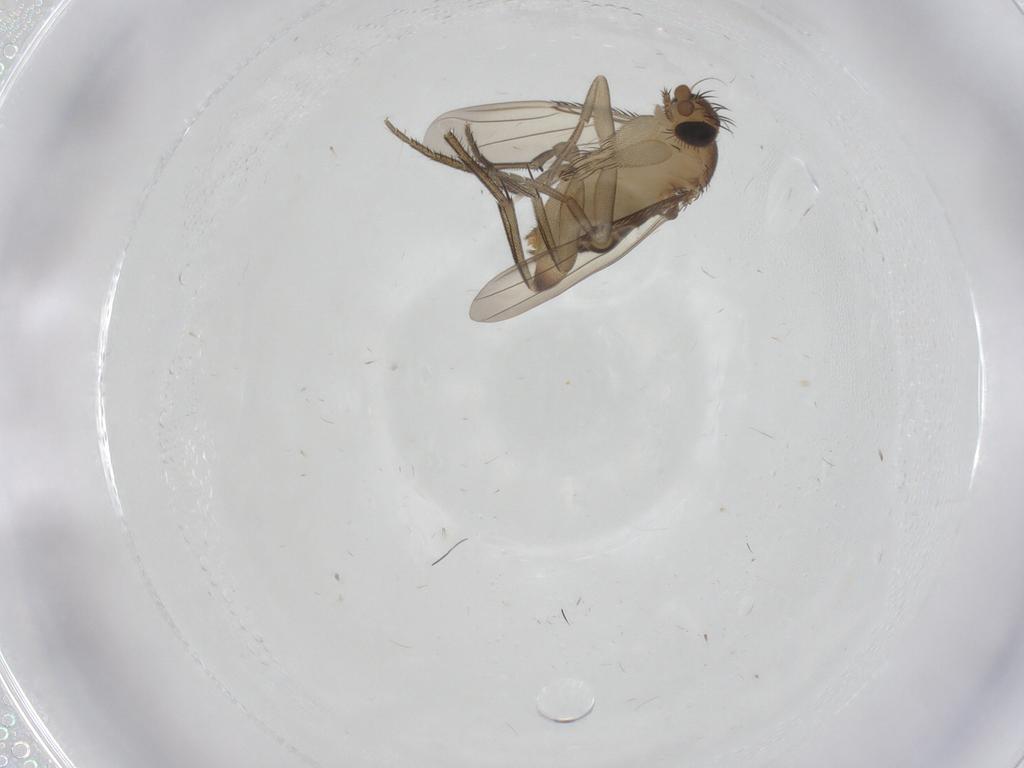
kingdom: Animalia
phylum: Arthropoda
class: Insecta
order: Diptera
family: Phoridae
